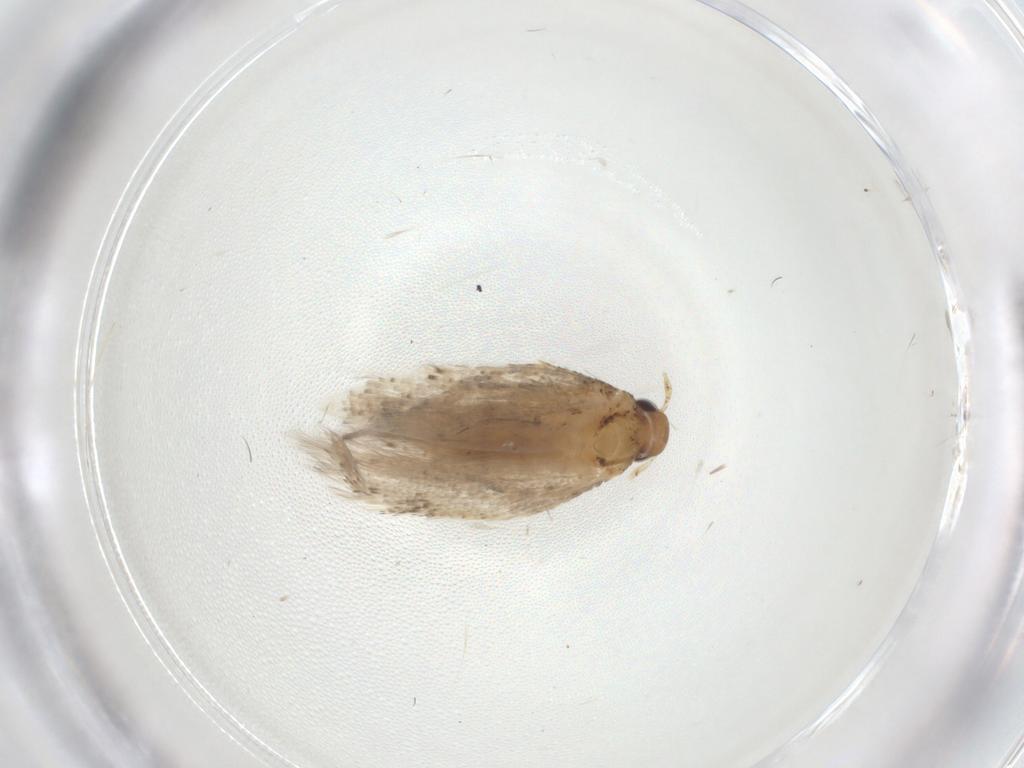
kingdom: Animalia
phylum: Arthropoda
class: Insecta
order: Lepidoptera
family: Gelechiidae
